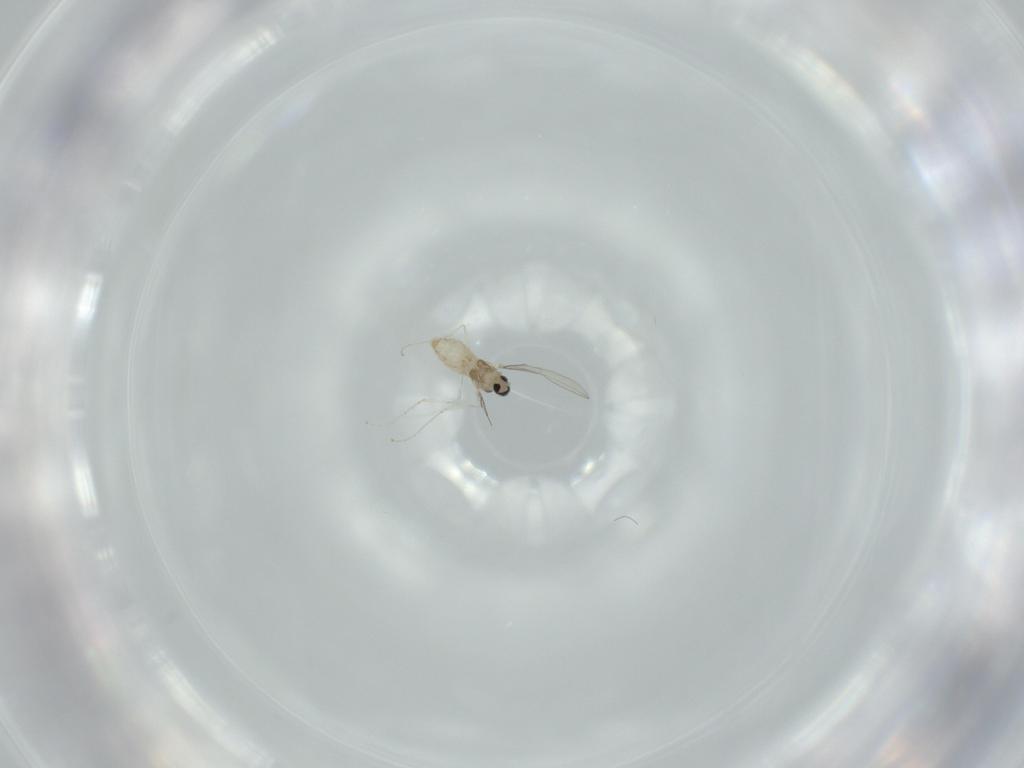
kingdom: Animalia
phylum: Arthropoda
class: Insecta
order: Diptera
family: Cecidomyiidae
